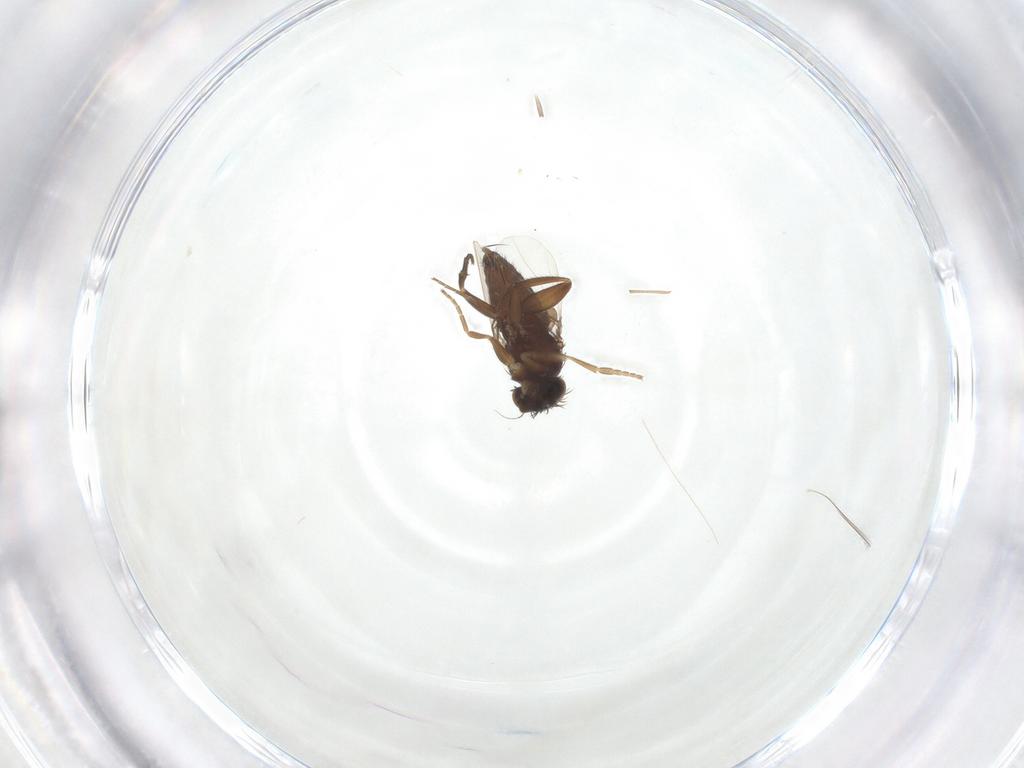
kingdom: Animalia
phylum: Arthropoda
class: Insecta
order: Diptera
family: Phoridae
